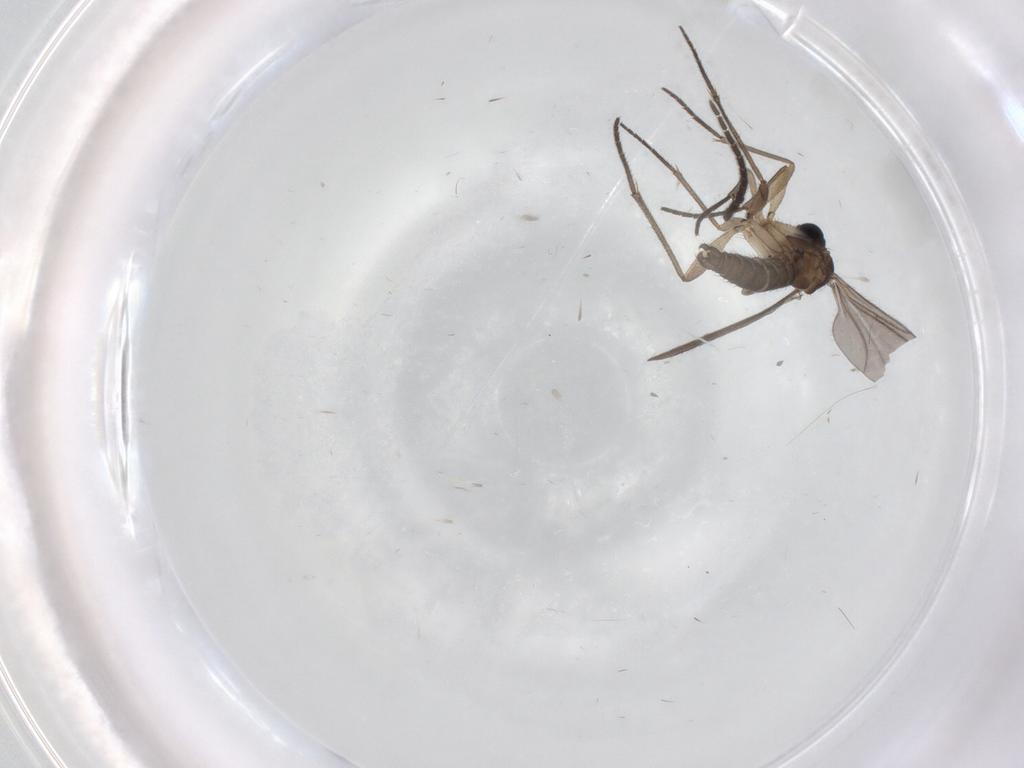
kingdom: Animalia
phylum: Arthropoda
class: Insecta
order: Diptera
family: Sciaridae
